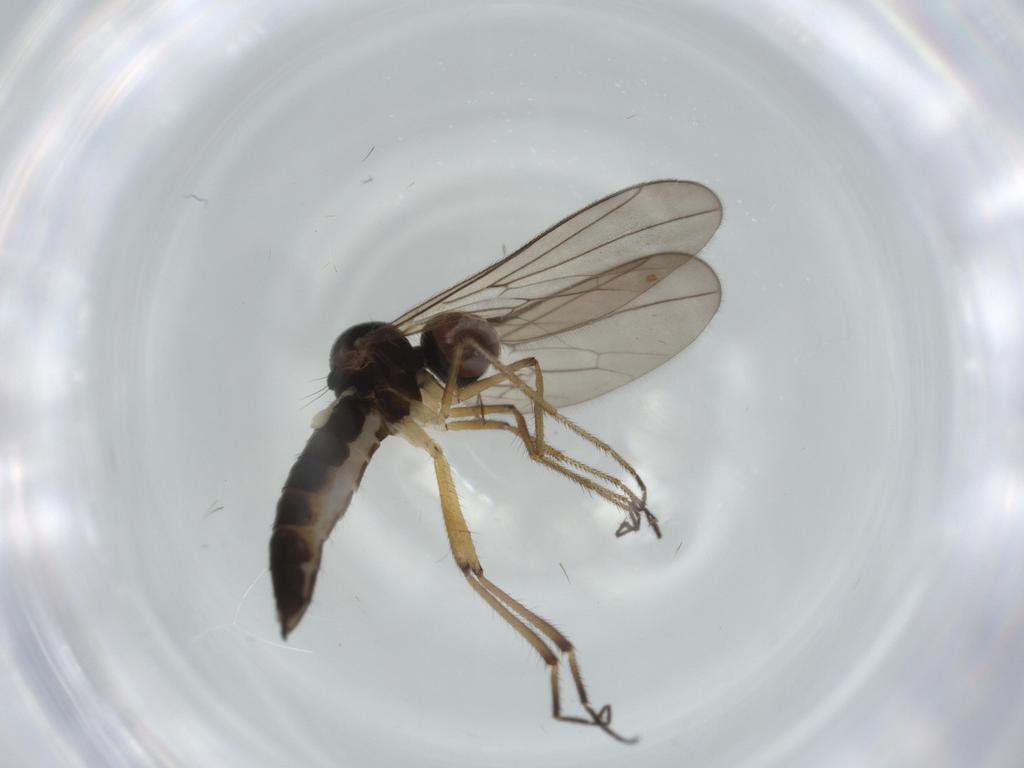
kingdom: Animalia
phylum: Arthropoda
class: Insecta
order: Diptera
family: Hybotidae
